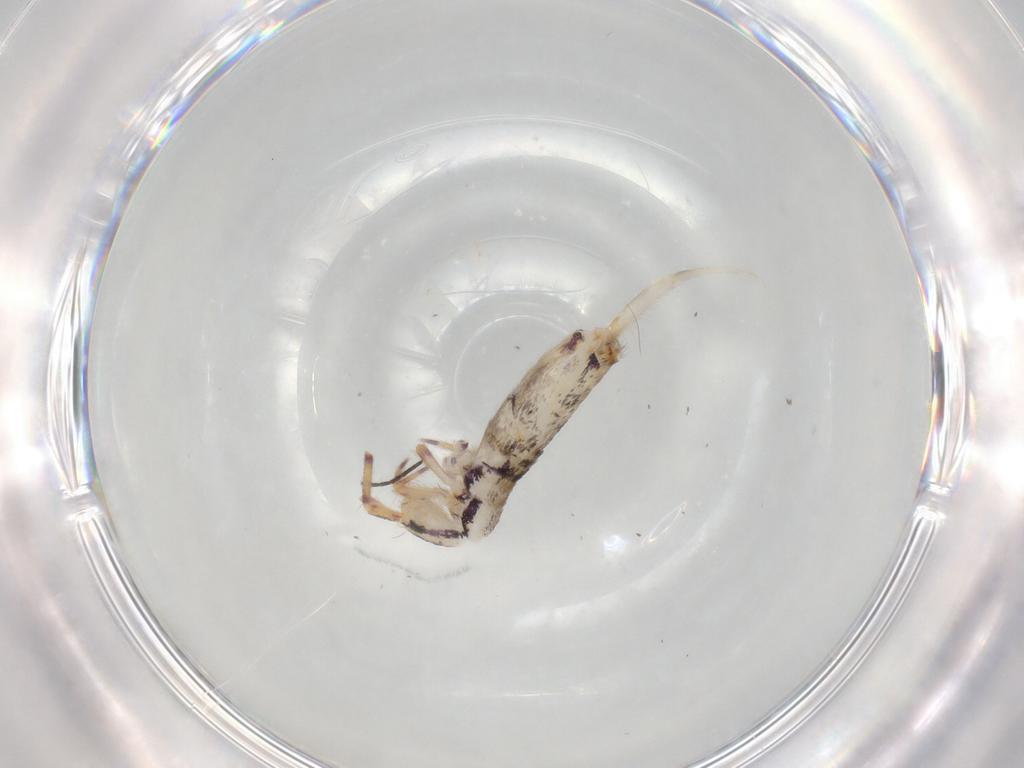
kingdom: Animalia
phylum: Arthropoda
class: Collembola
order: Entomobryomorpha
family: Entomobryidae
